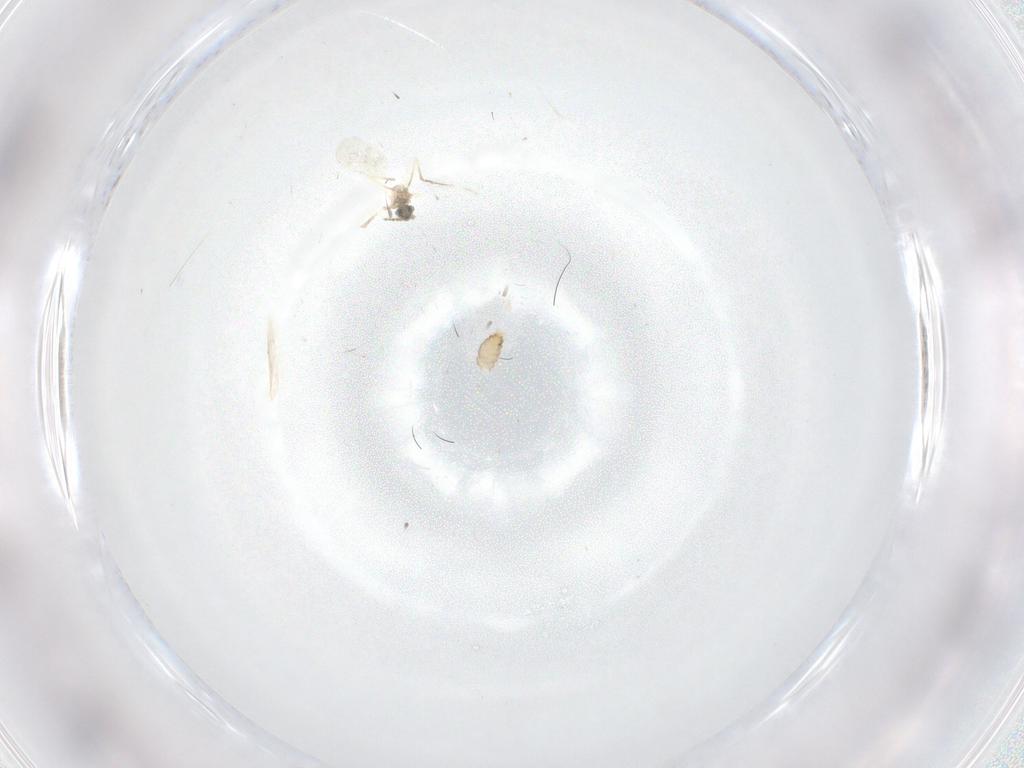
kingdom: Animalia
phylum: Arthropoda
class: Insecta
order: Diptera
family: Cecidomyiidae
